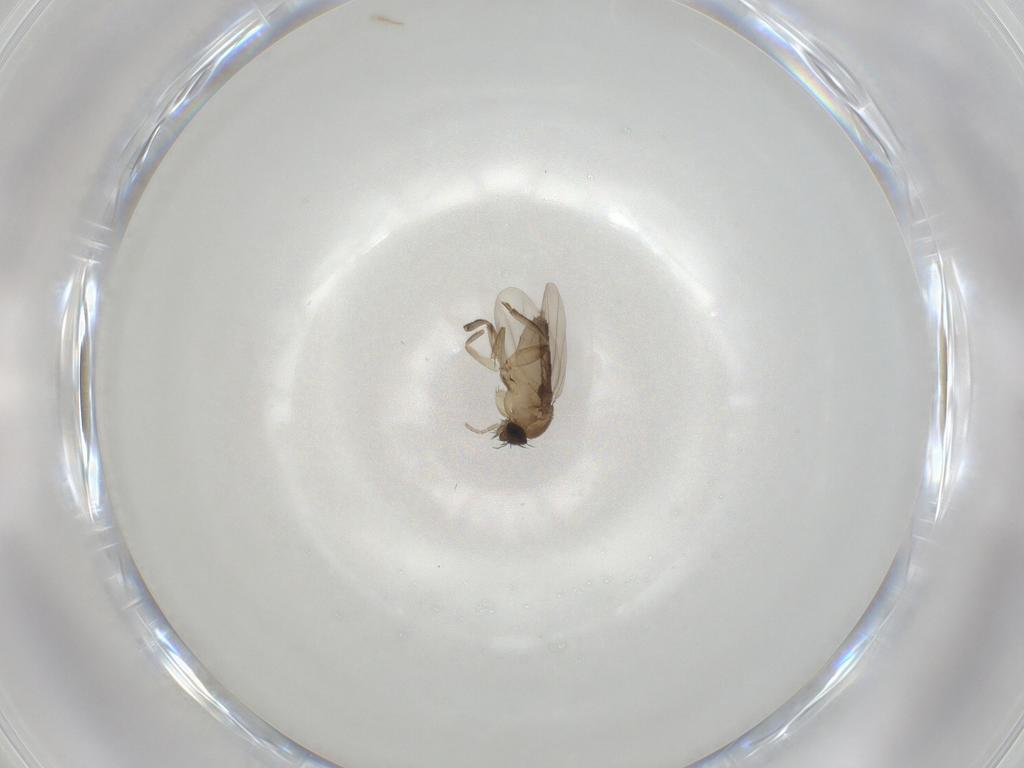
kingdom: Animalia
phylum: Arthropoda
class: Insecta
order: Diptera
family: Phoridae
